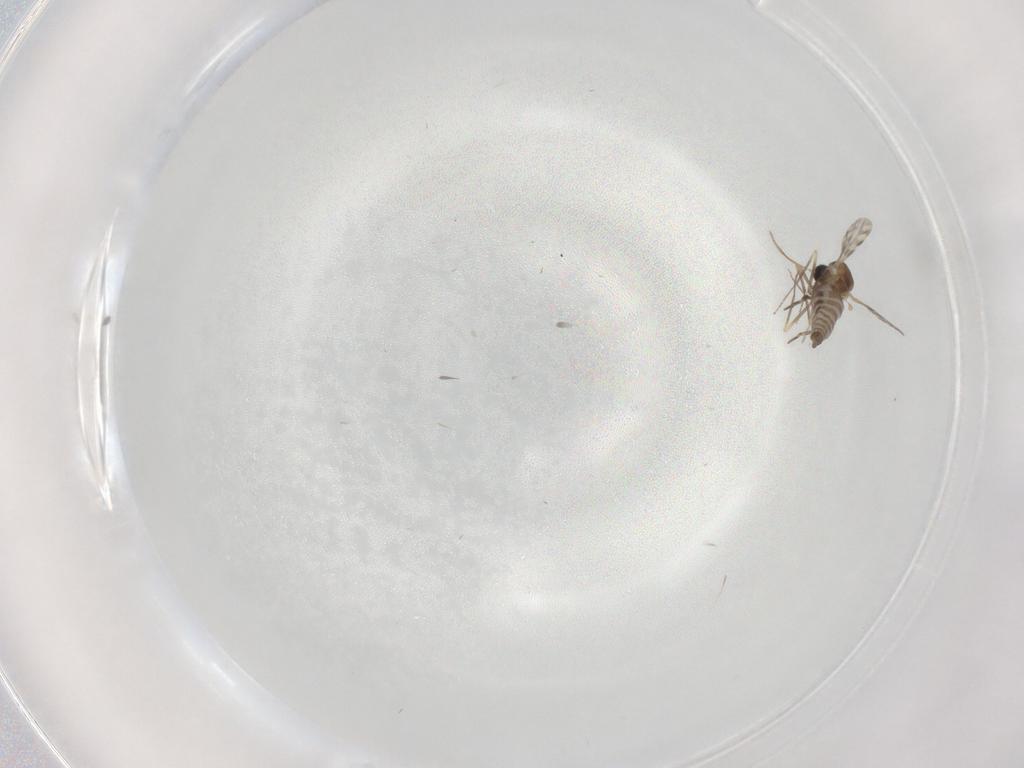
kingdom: Animalia
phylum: Arthropoda
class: Insecta
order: Diptera
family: Ceratopogonidae
